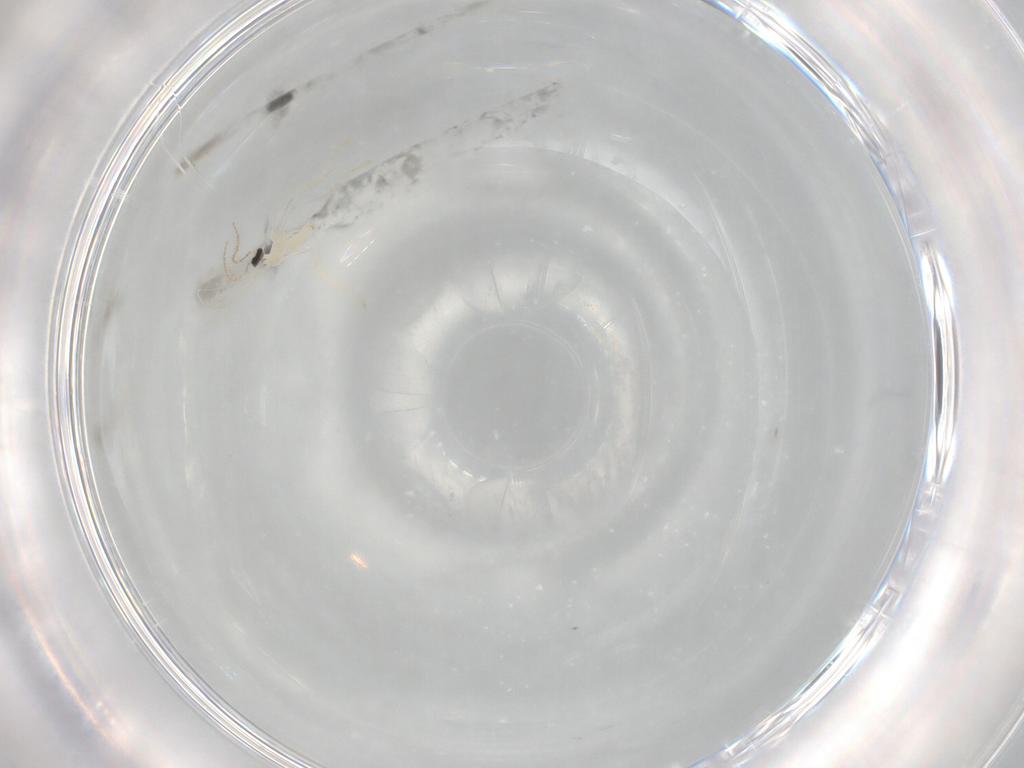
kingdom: Animalia
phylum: Arthropoda
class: Insecta
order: Diptera
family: Cecidomyiidae
